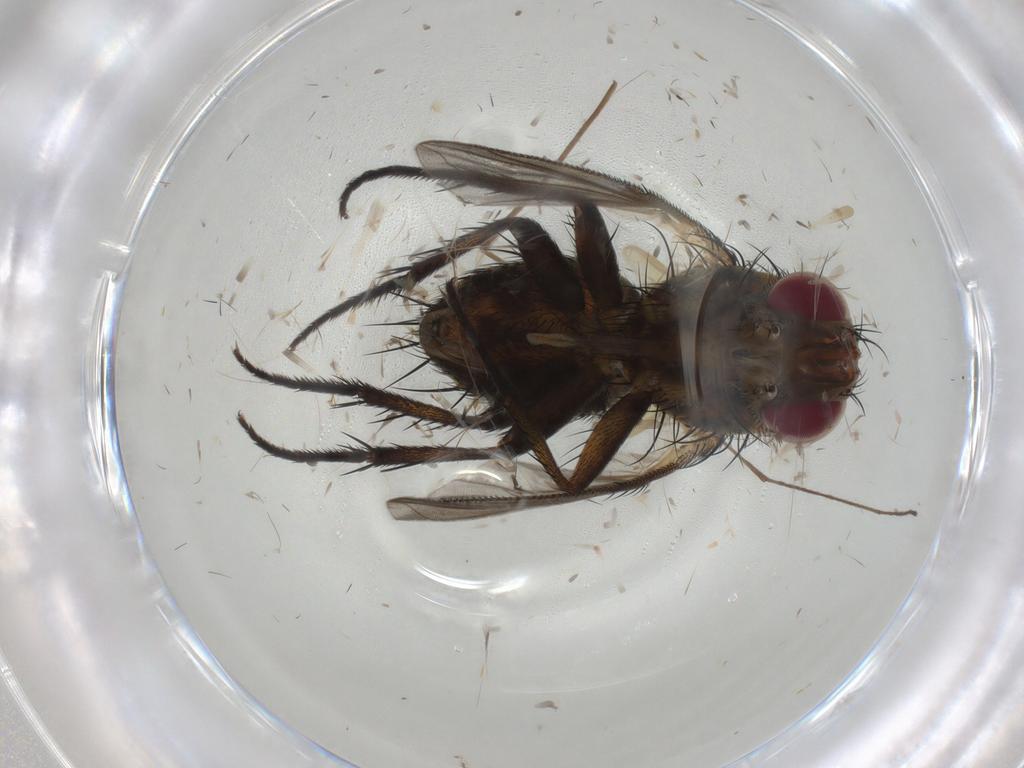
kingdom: Animalia
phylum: Arthropoda
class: Insecta
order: Diptera
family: Tachinidae
